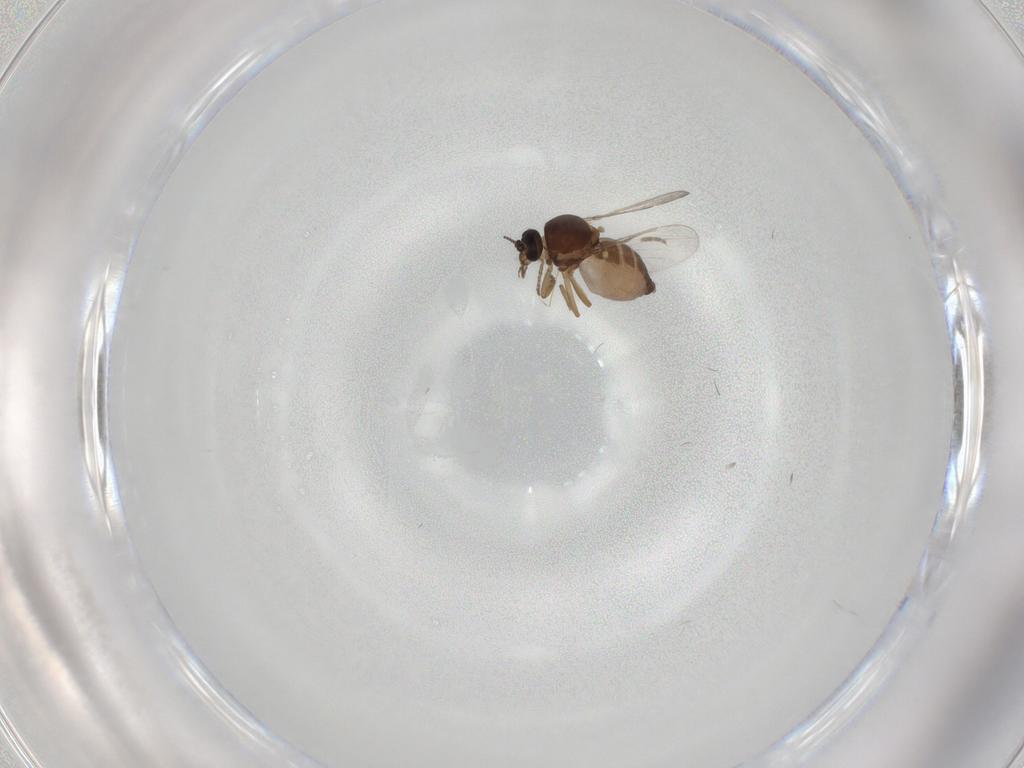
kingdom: Animalia
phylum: Arthropoda
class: Insecta
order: Diptera
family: Ceratopogonidae
